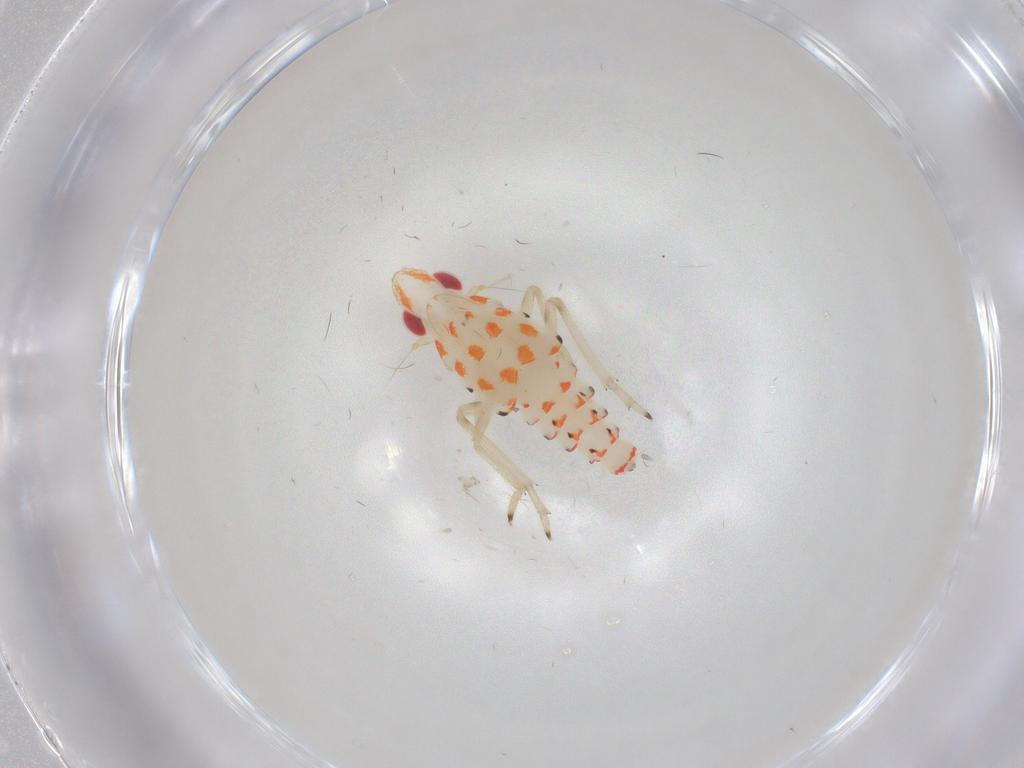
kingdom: Animalia
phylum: Arthropoda
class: Insecta
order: Hemiptera
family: Tropiduchidae
